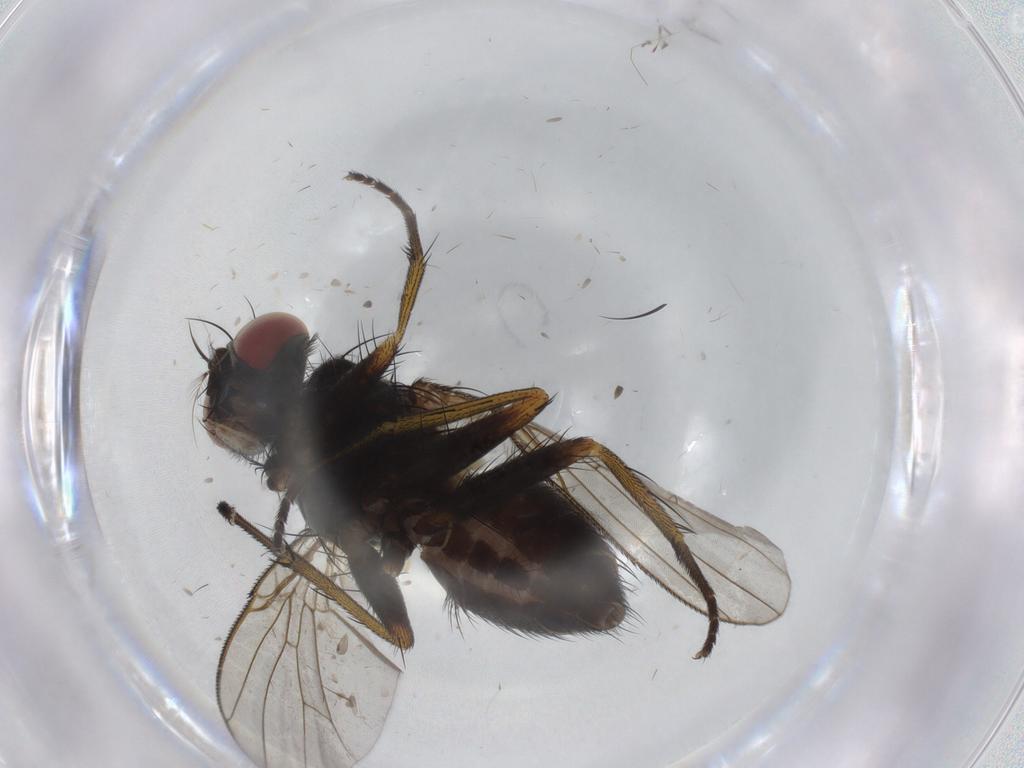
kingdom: Animalia
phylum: Arthropoda
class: Insecta
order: Diptera
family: Muscidae
